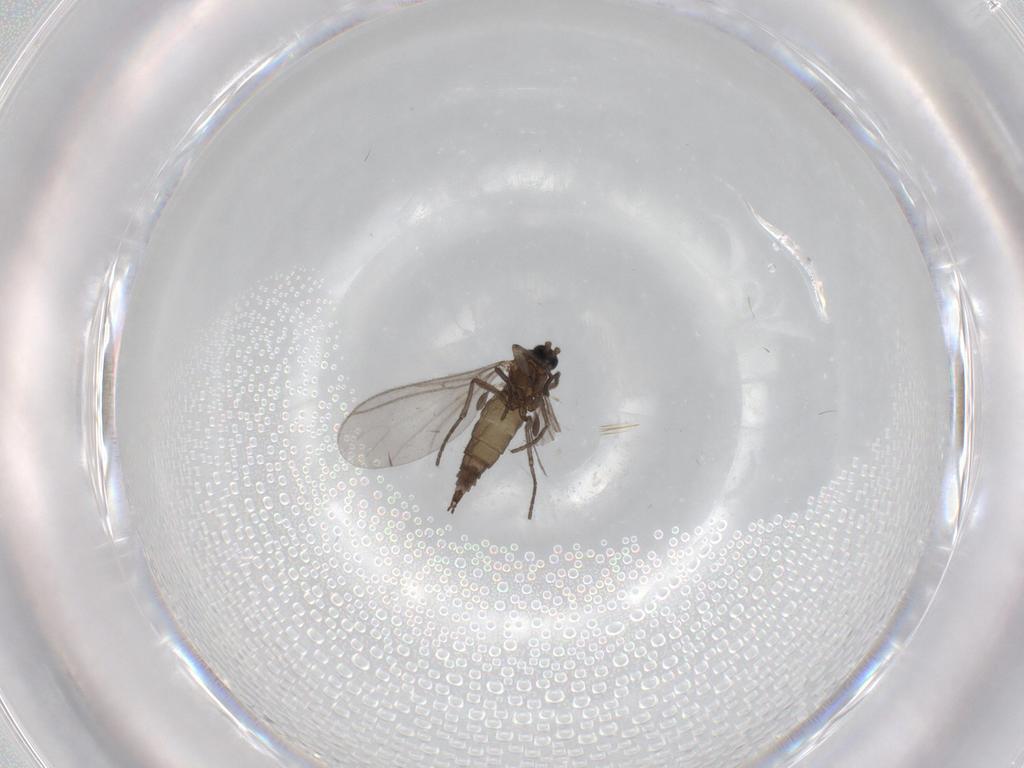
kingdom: Animalia
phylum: Arthropoda
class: Insecta
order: Diptera
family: Sciaridae
